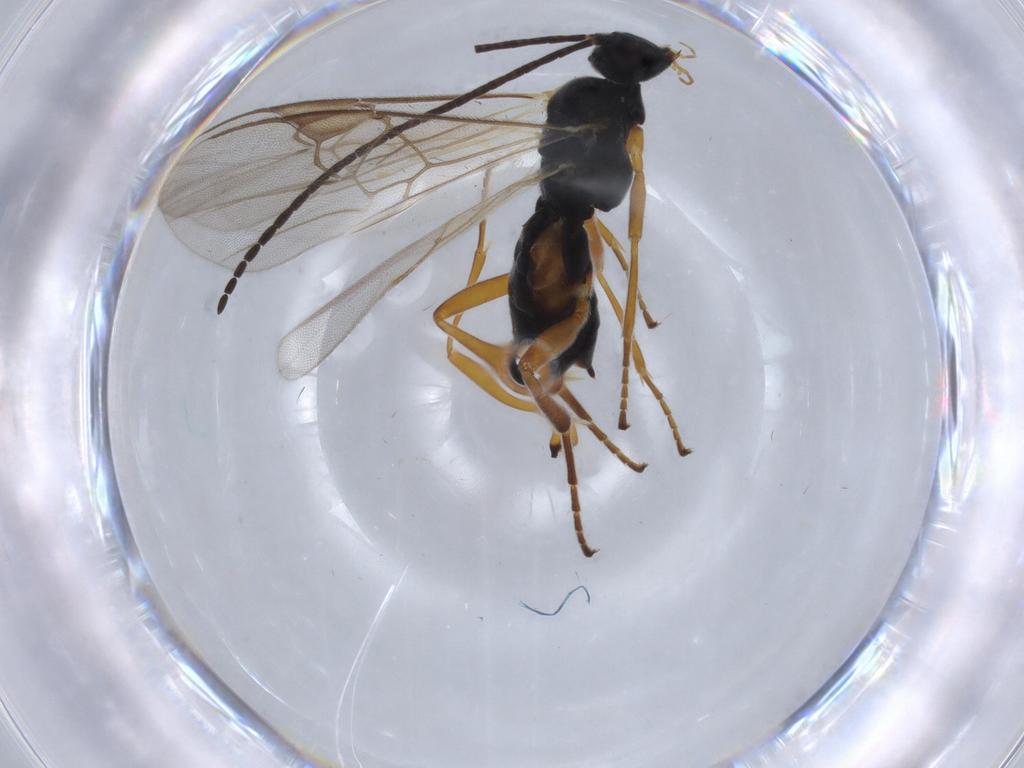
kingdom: Animalia
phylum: Arthropoda
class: Insecta
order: Hymenoptera
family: Braconidae
